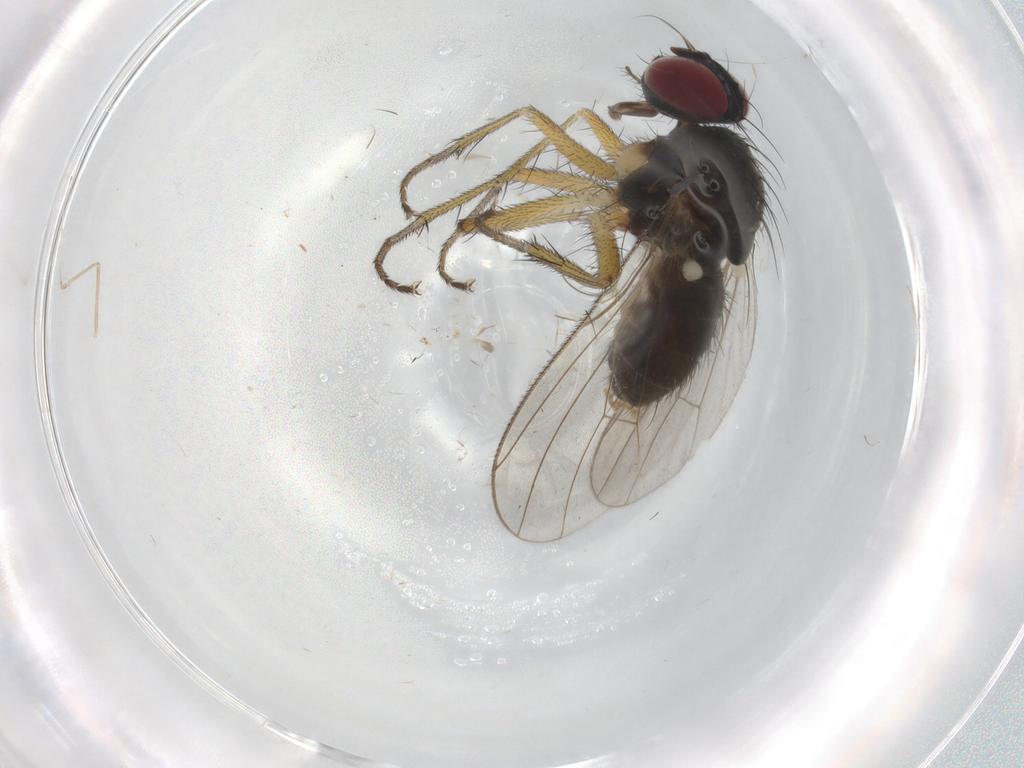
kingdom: Animalia
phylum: Arthropoda
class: Insecta
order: Diptera
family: Muscidae
